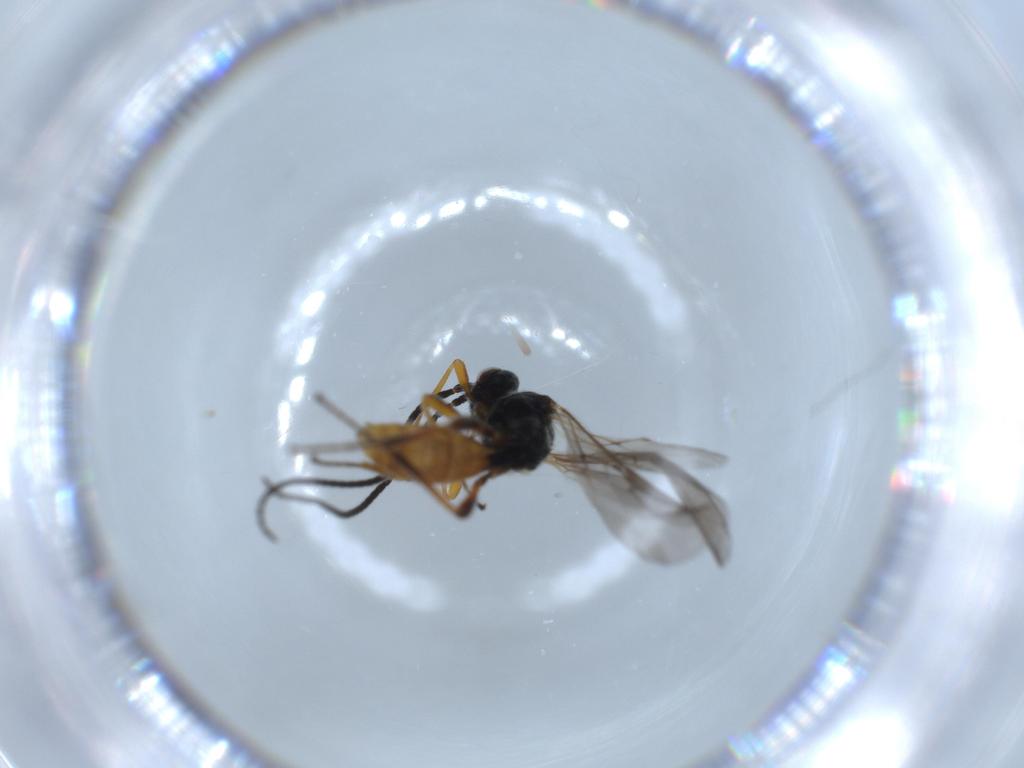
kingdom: Animalia
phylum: Arthropoda
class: Insecta
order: Hymenoptera
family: Braconidae
